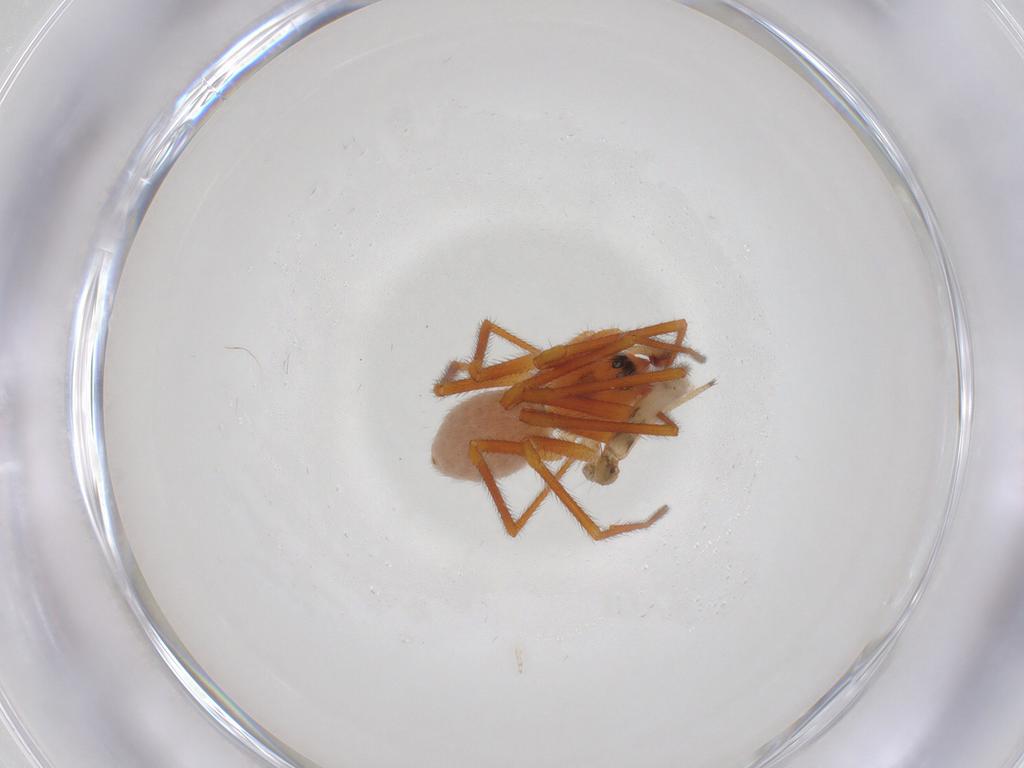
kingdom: Animalia
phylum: Arthropoda
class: Arachnida
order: Araneae
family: Linyphiidae
